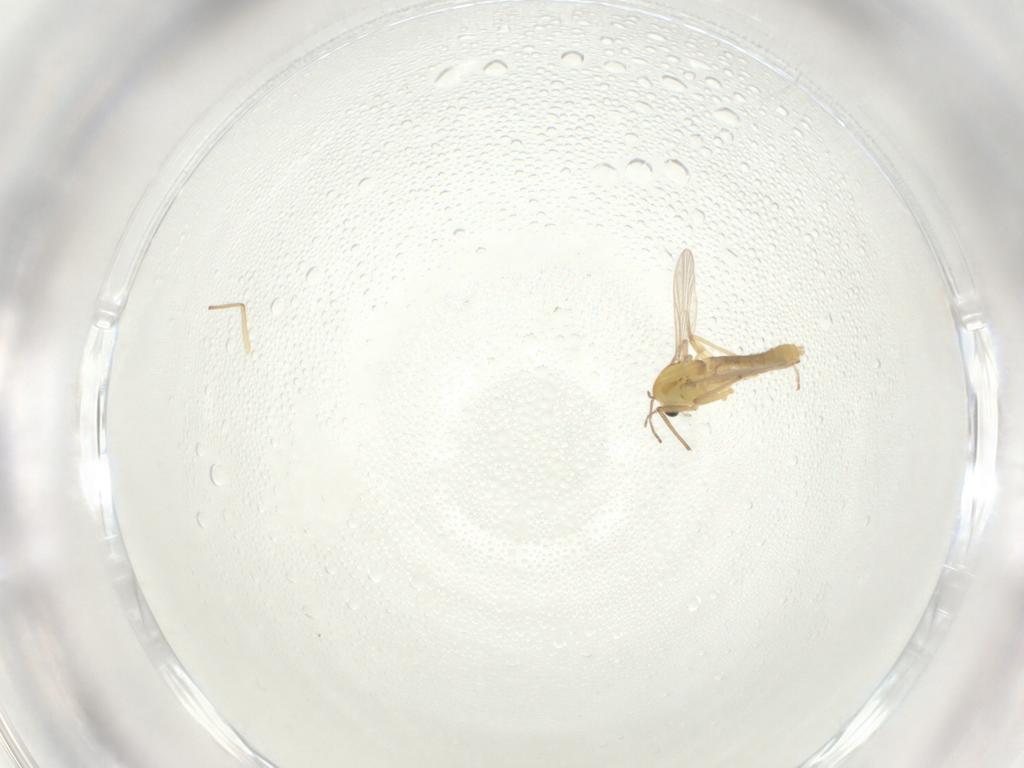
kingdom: Animalia
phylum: Arthropoda
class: Insecta
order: Diptera
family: Chironomidae
